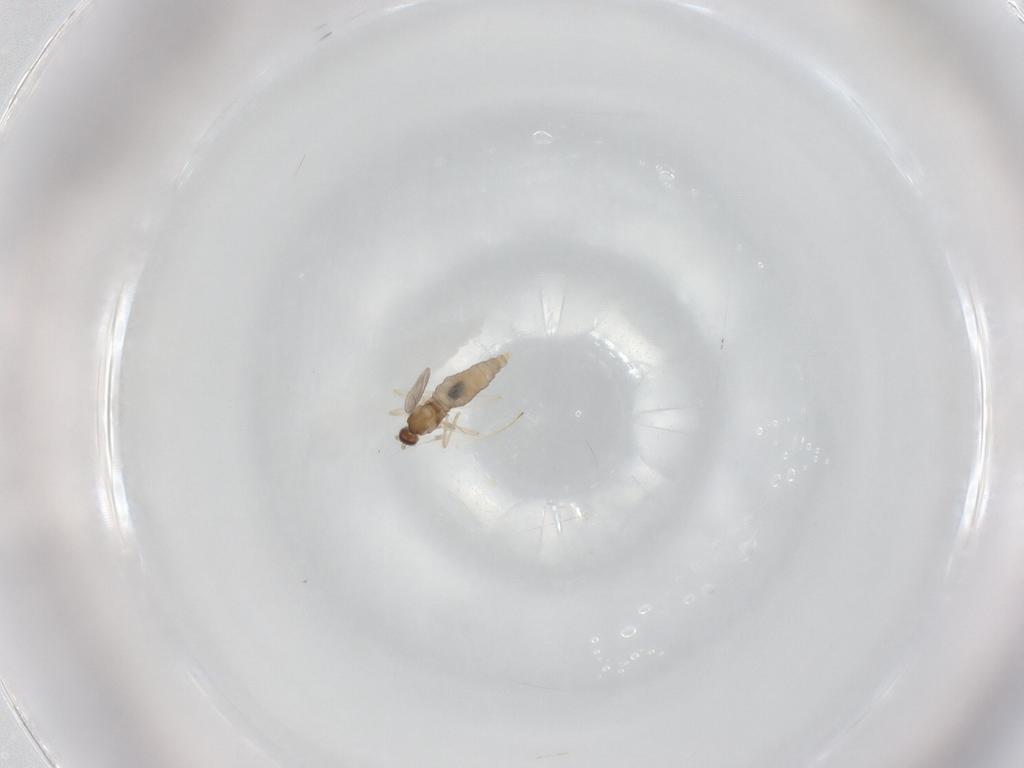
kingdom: Animalia
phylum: Arthropoda
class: Insecta
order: Diptera
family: Cecidomyiidae
